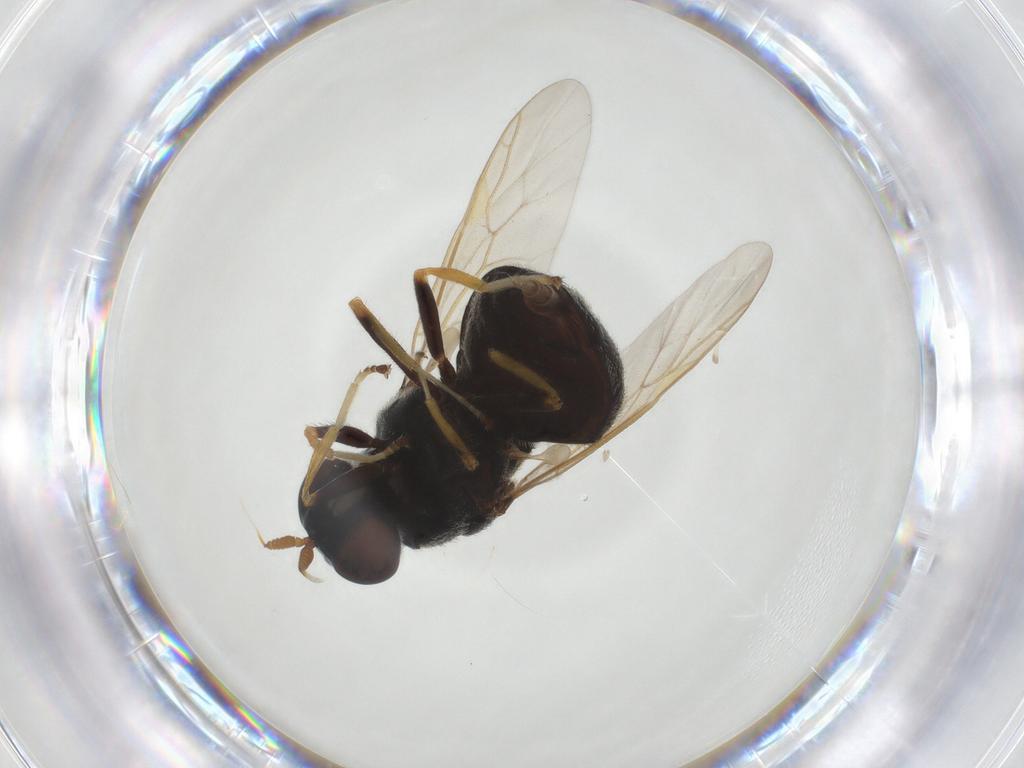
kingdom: Animalia
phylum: Arthropoda
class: Insecta
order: Diptera
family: Stratiomyidae
